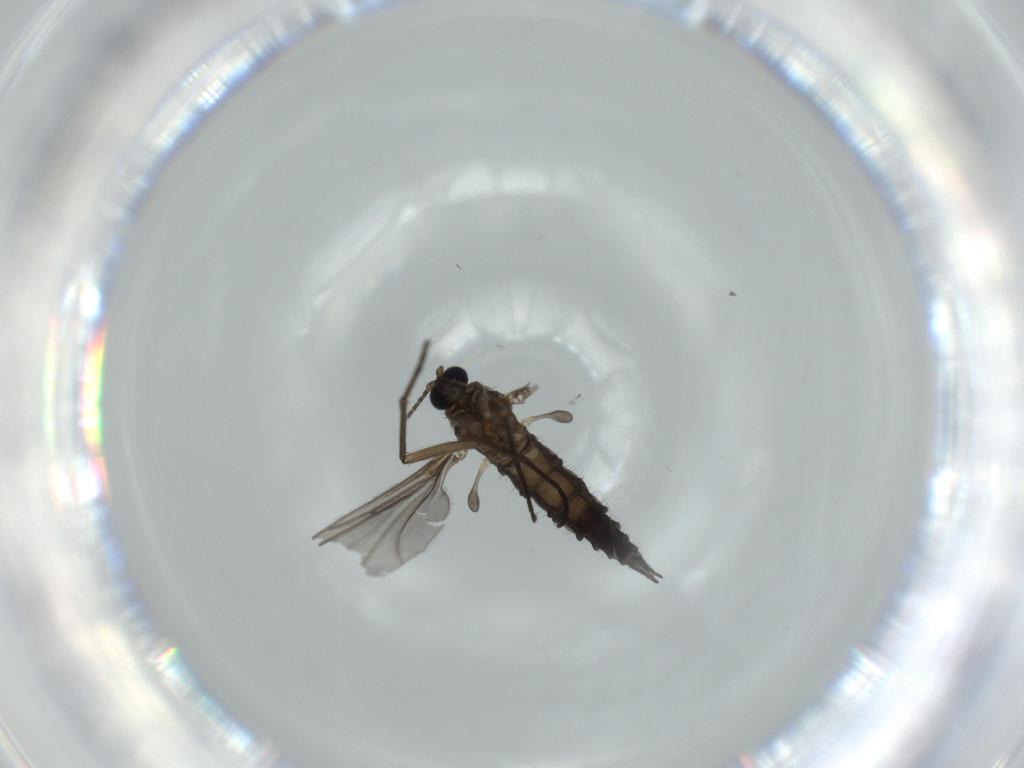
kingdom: Animalia
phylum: Arthropoda
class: Insecta
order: Diptera
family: Sciaridae
